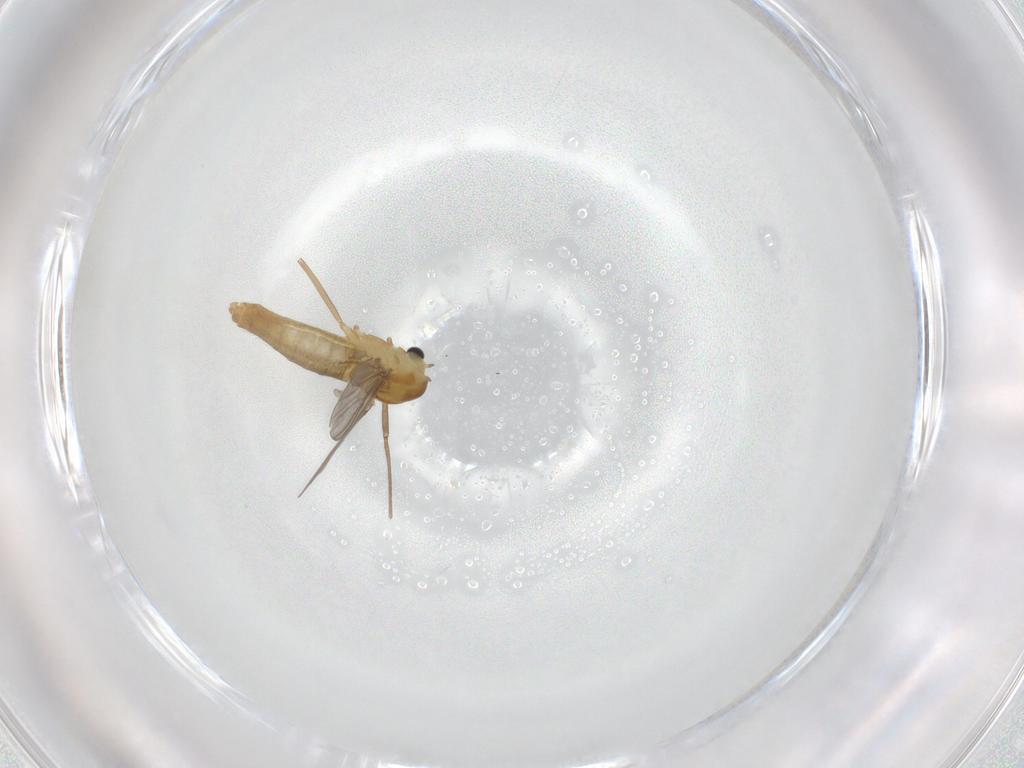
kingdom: Animalia
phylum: Arthropoda
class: Insecta
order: Diptera
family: Chironomidae
